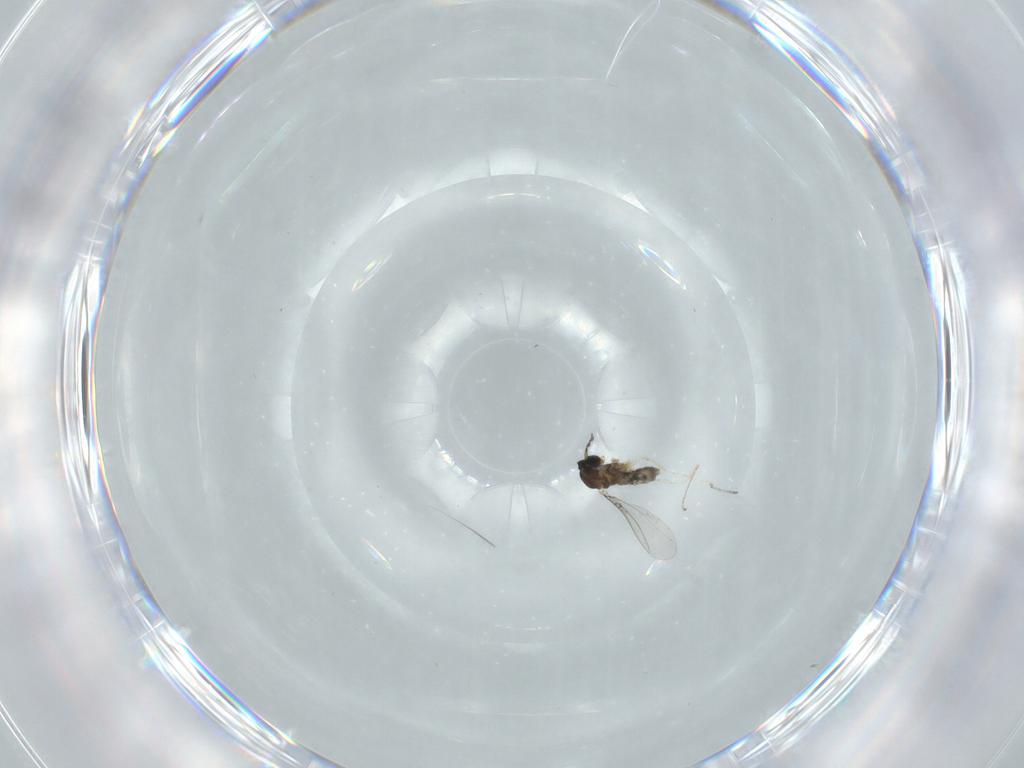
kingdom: Animalia
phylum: Arthropoda
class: Insecta
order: Diptera
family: Cecidomyiidae
